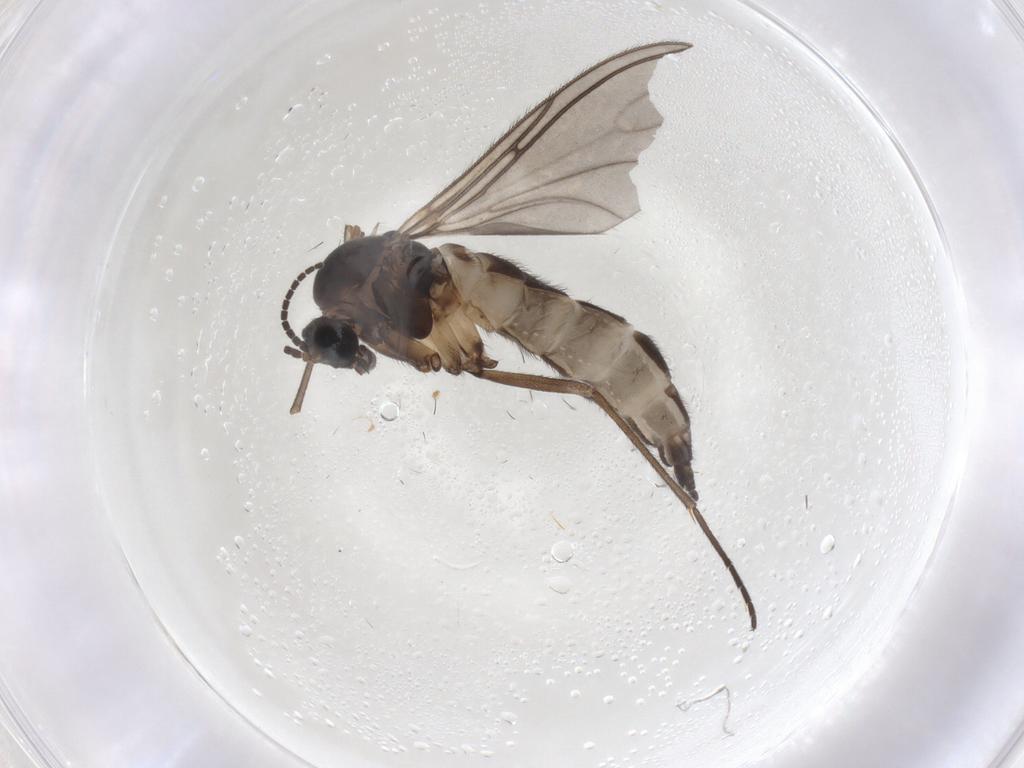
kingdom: Animalia
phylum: Arthropoda
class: Insecta
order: Diptera
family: Sciaridae
